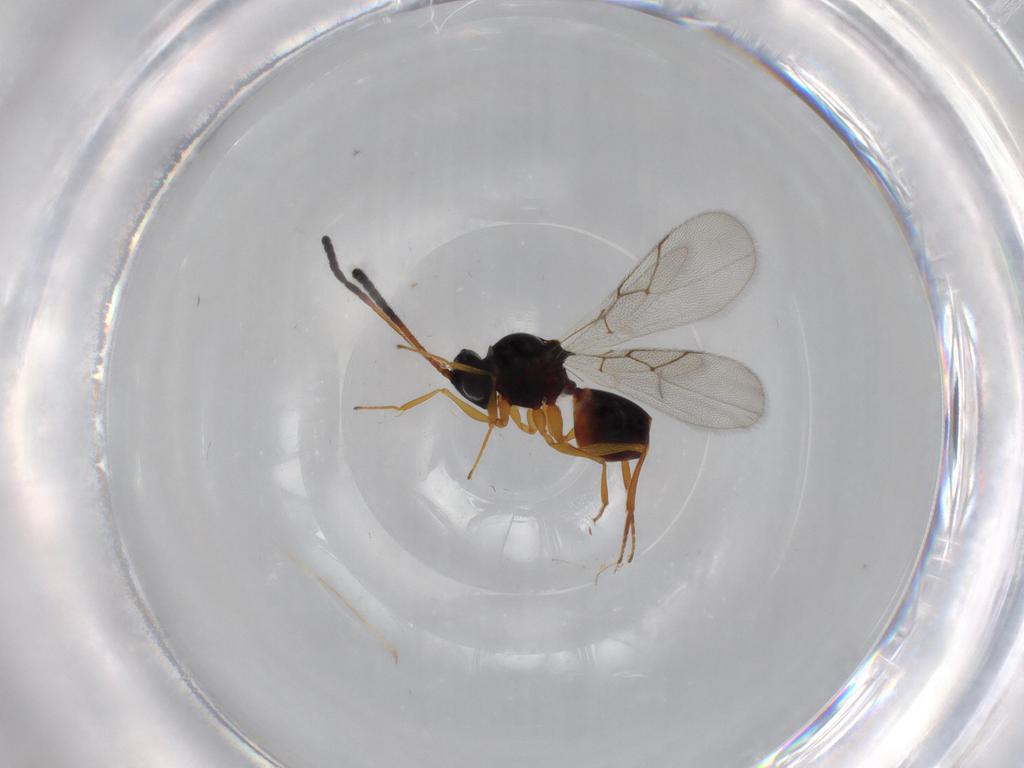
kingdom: Animalia
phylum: Arthropoda
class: Insecta
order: Hymenoptera
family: Figitidae
